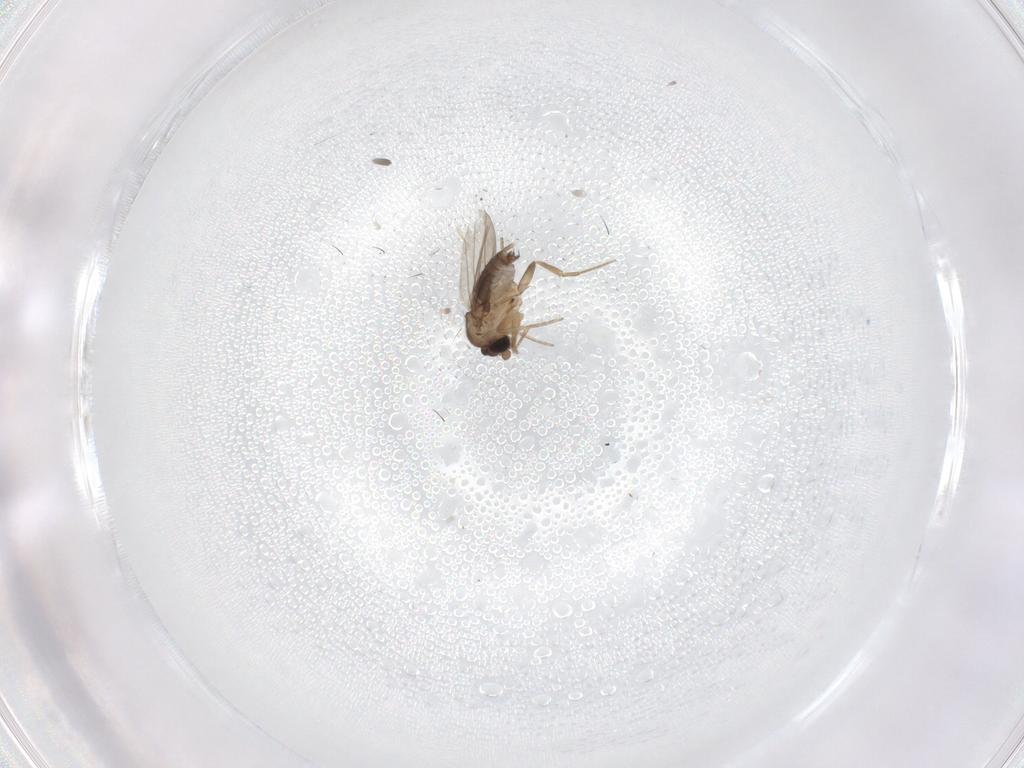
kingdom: Animalia
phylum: Arthropoda
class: Insecta
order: Diptera
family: Phoridae
